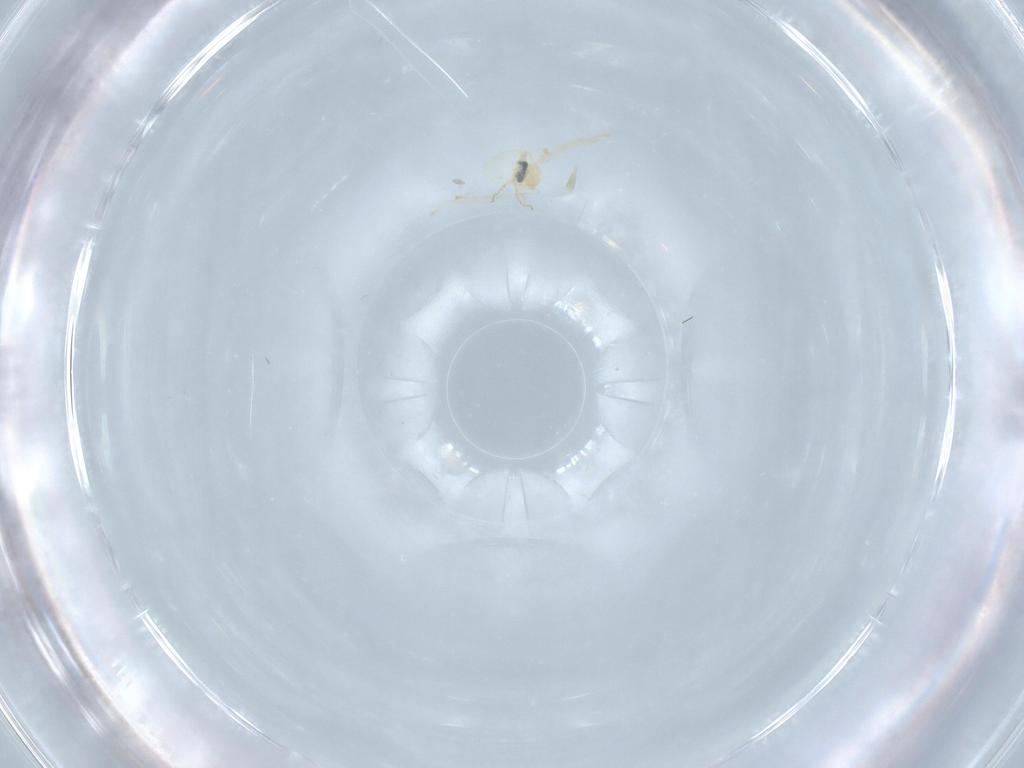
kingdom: Animalia
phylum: Arthropoda
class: Insecta
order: Diptera
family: Cecidomyiidae
